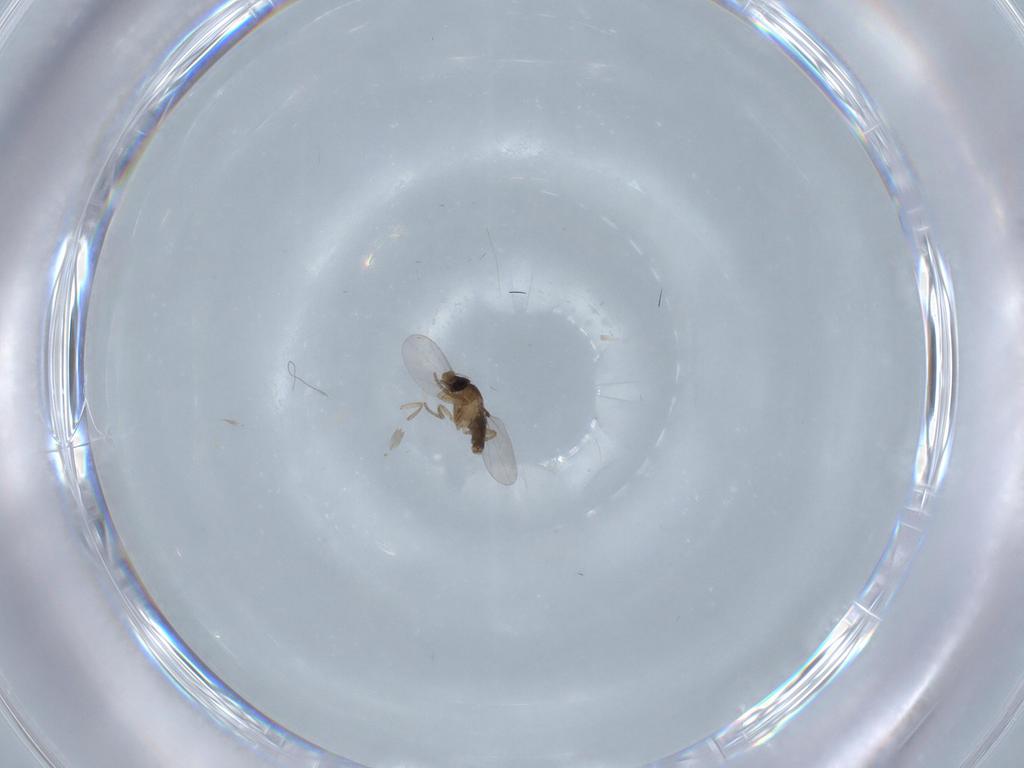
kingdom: Animalia
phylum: Arthropoda
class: Insecta
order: Diptera
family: Phoridae
